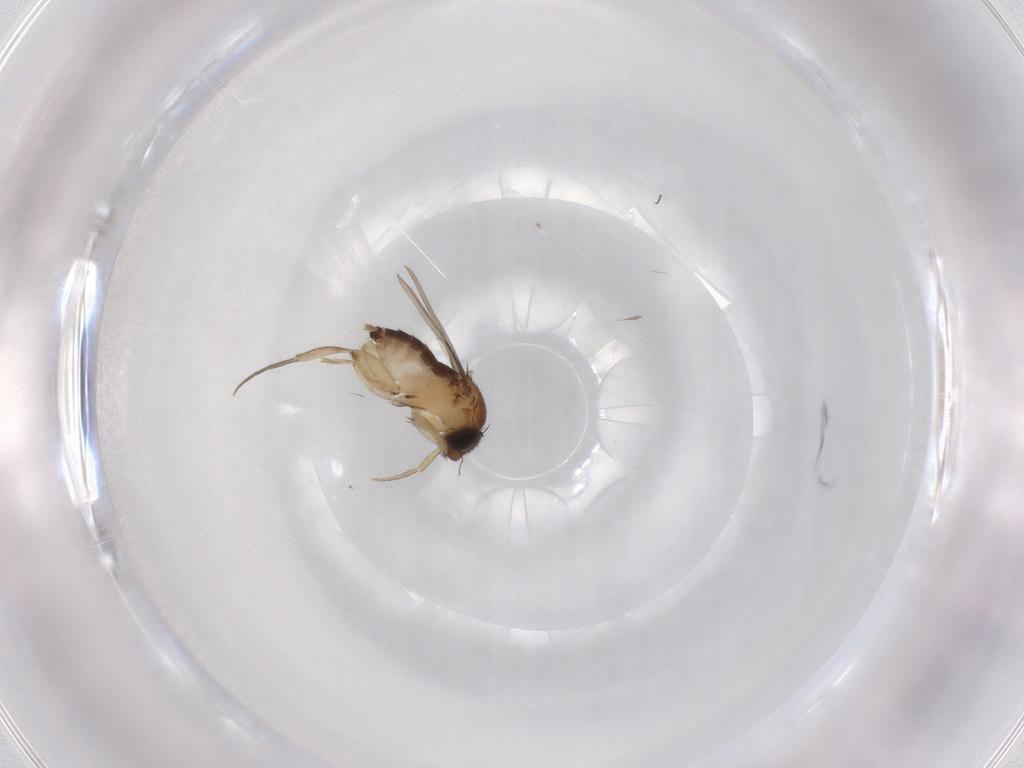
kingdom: Animalia
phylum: Arthropoda
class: Insecta
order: Diptera
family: Phoridae
